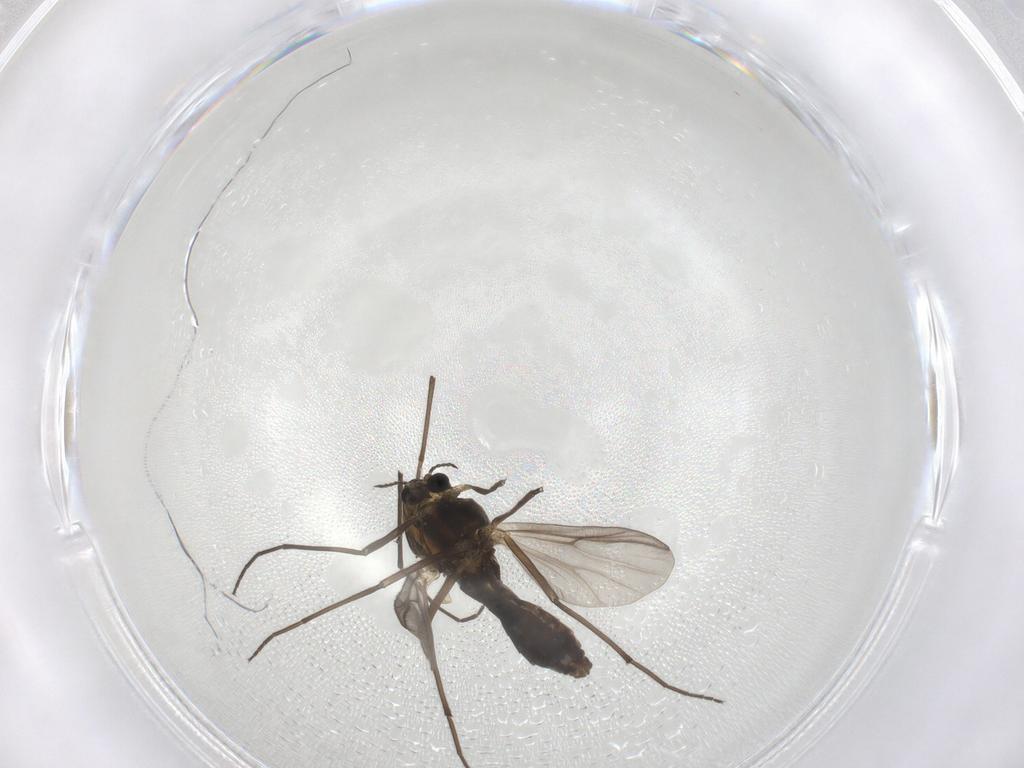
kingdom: Animalia
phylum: Arthropoda
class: Insecta
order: Diptera
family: Chironomidae
